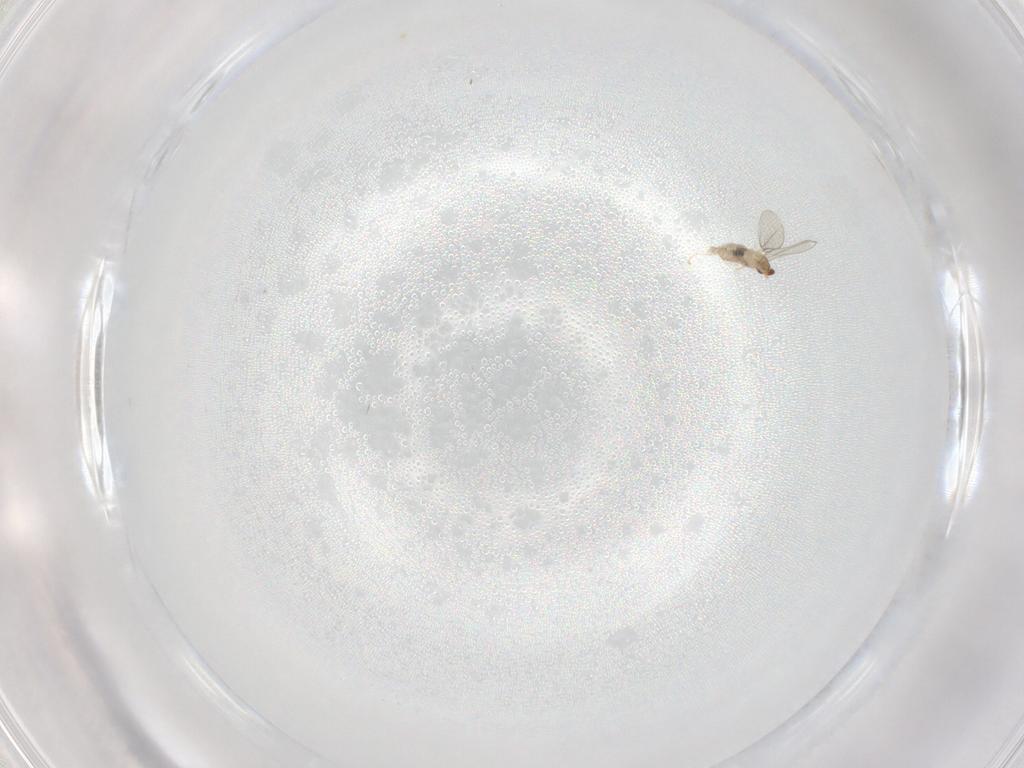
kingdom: Animalia
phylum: Arthropoda
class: Insecta
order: Diptera
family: Cecidomyiidae
